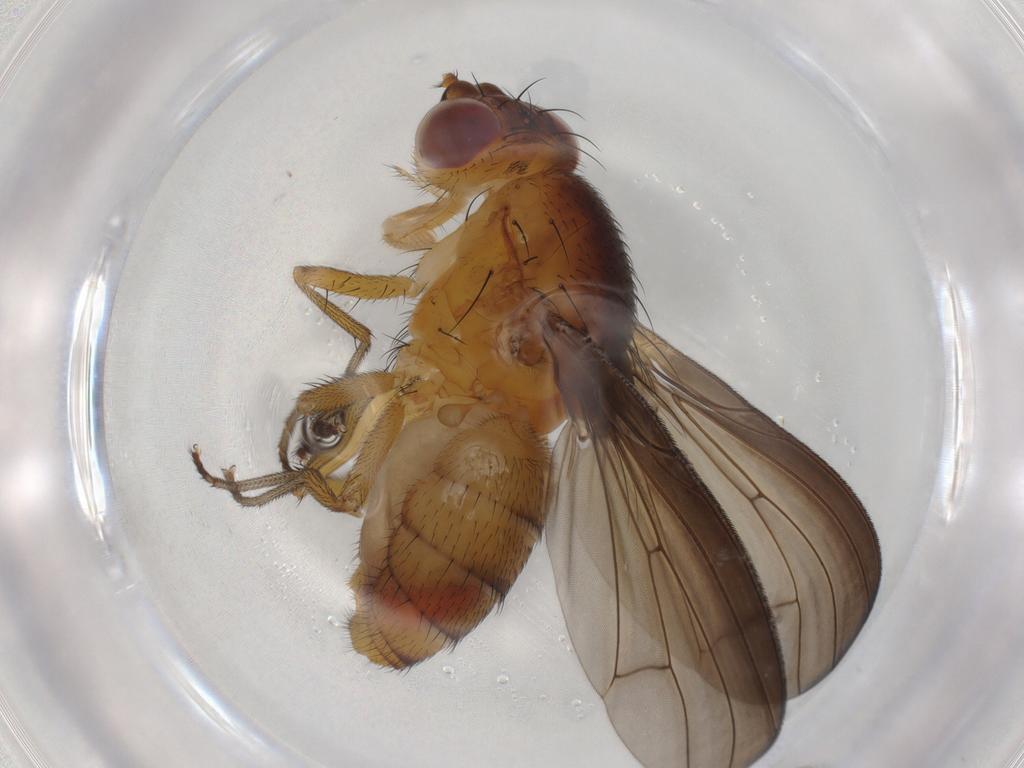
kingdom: Animalia
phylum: Arthropoda
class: Insecta
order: Diptera
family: Lauxaniidae
